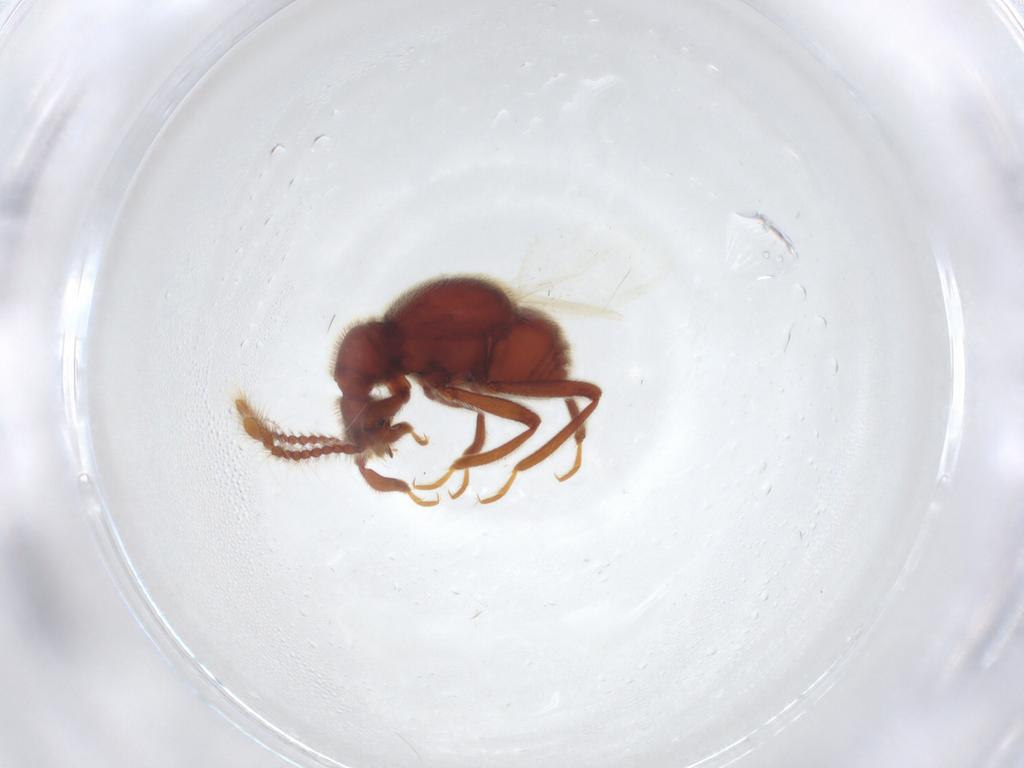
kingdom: Animalia
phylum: Arthropoda
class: Insecta
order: Coleoptera
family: Staphylinidae
